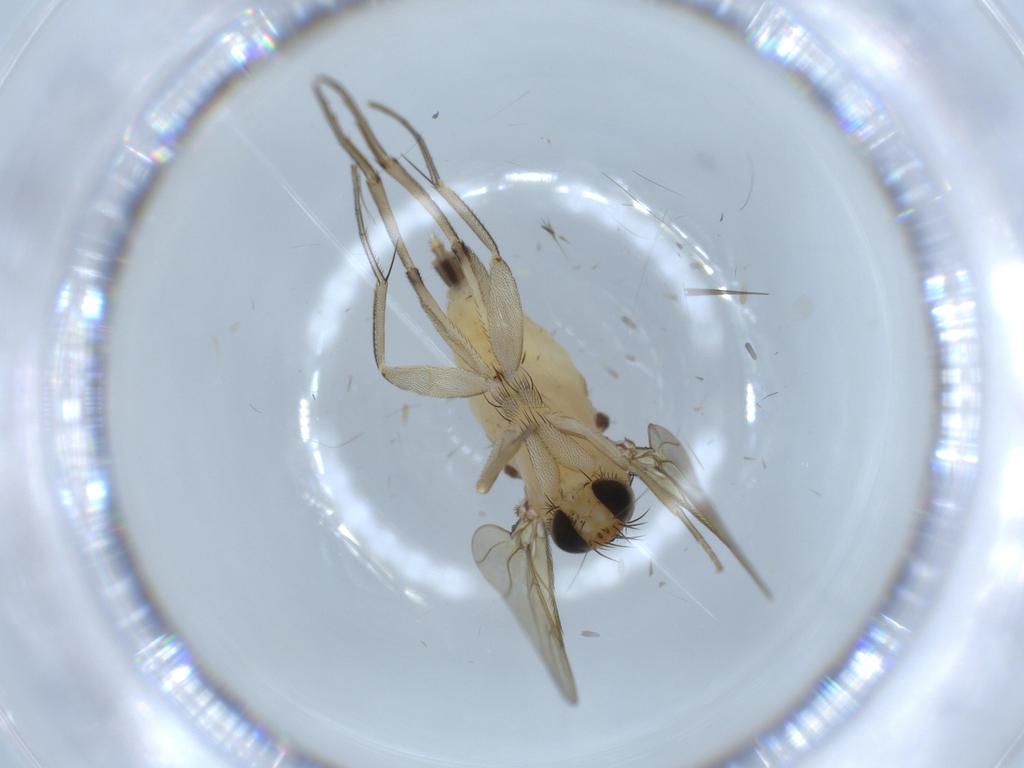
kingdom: Animalia
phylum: Arthropoda
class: Insecta
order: Diptera
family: Phoridae
